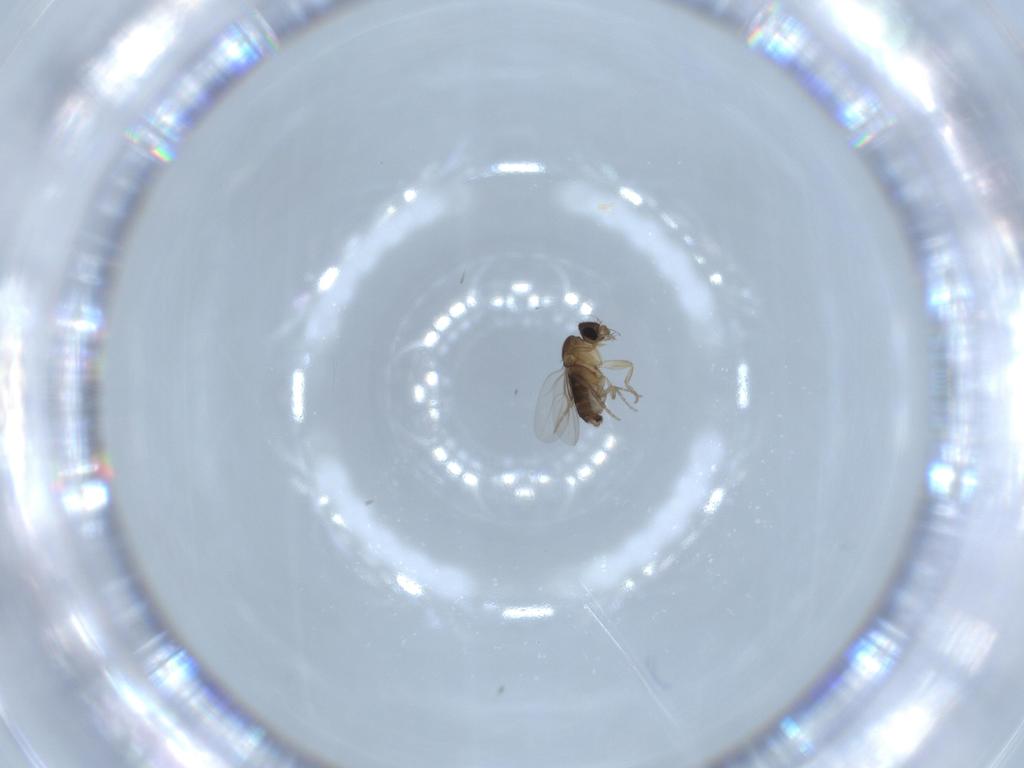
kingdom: Animalia
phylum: Arthropoda
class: Insecta
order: Diptera
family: Phoridae
